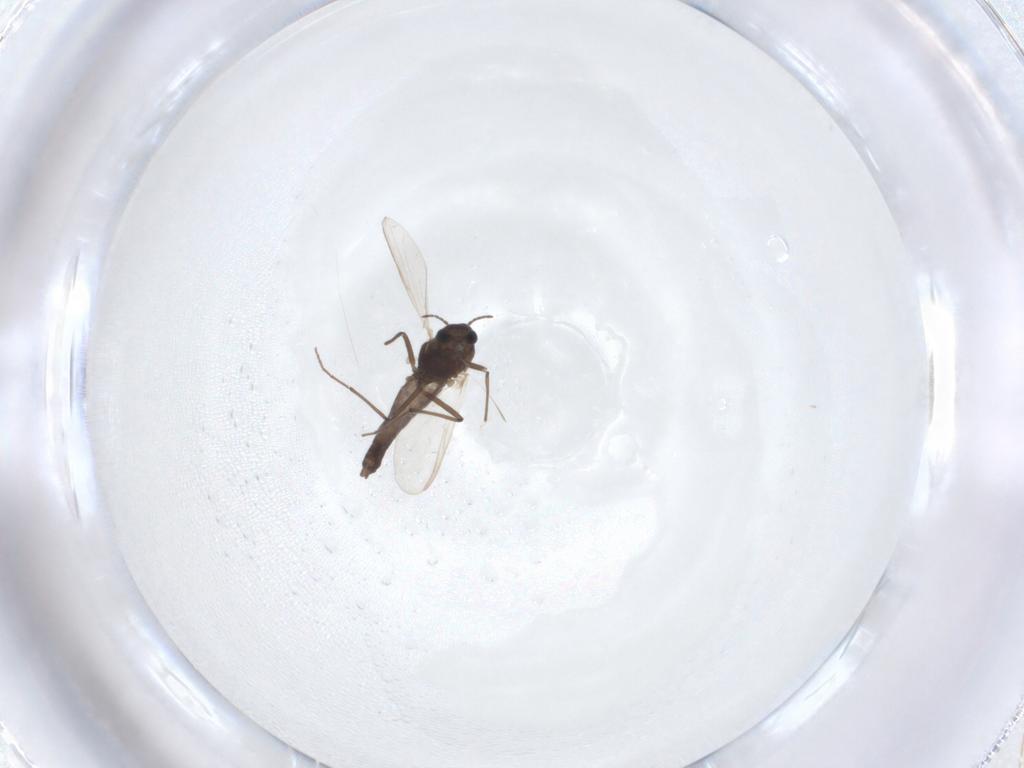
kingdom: Animalia
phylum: Arthropoda
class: Insecta
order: Diptera
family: Chironomidae
